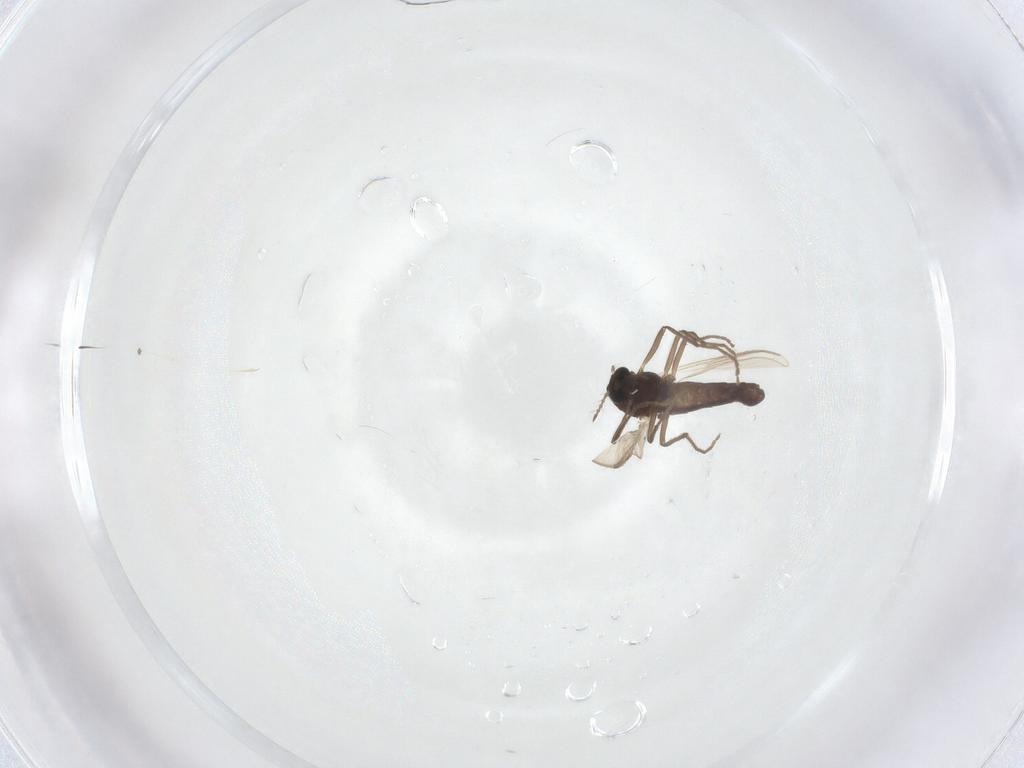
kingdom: Animalia
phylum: Arthropoda
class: Insecta
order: Diptera
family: Chironomidae
